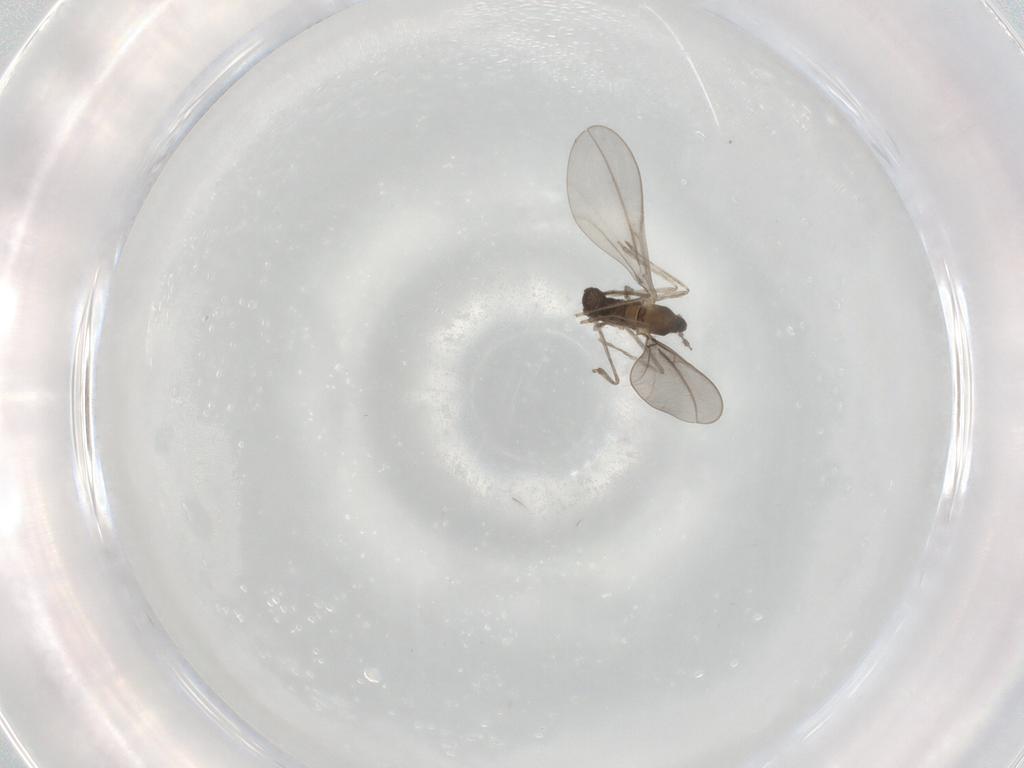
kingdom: Animalia
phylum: Arthropoda
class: Insecta
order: Diptera
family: Cecidomyiidae
